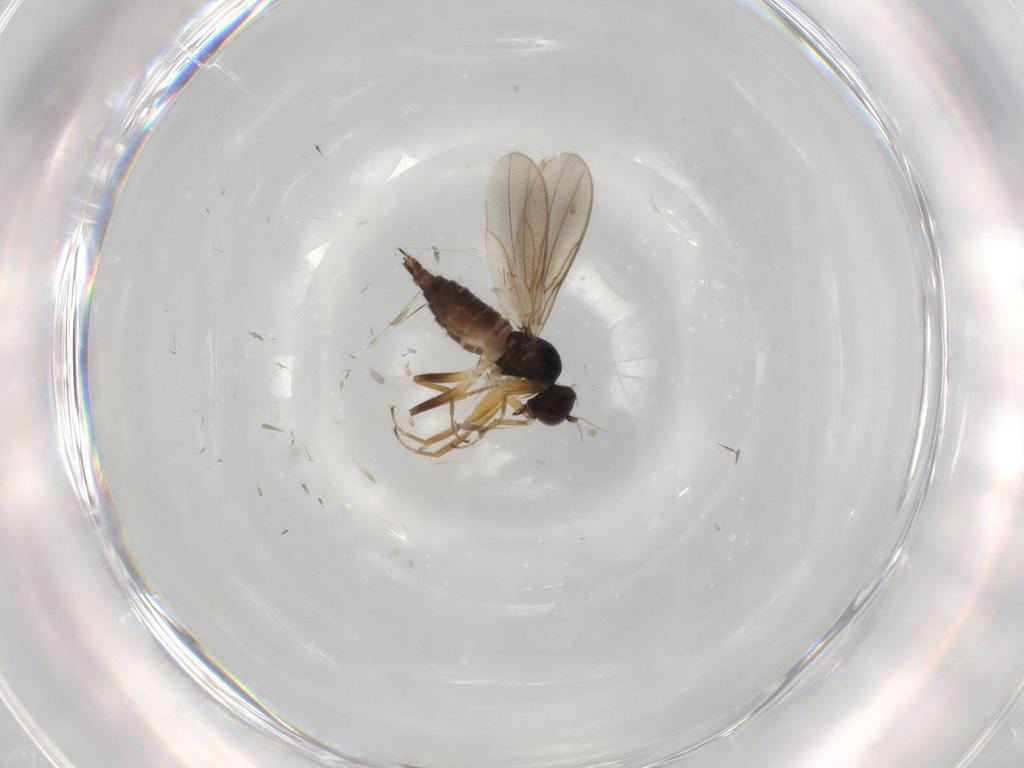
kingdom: Animalia
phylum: Arthropoda
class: Insecta
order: Diptera
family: Hybotidae
